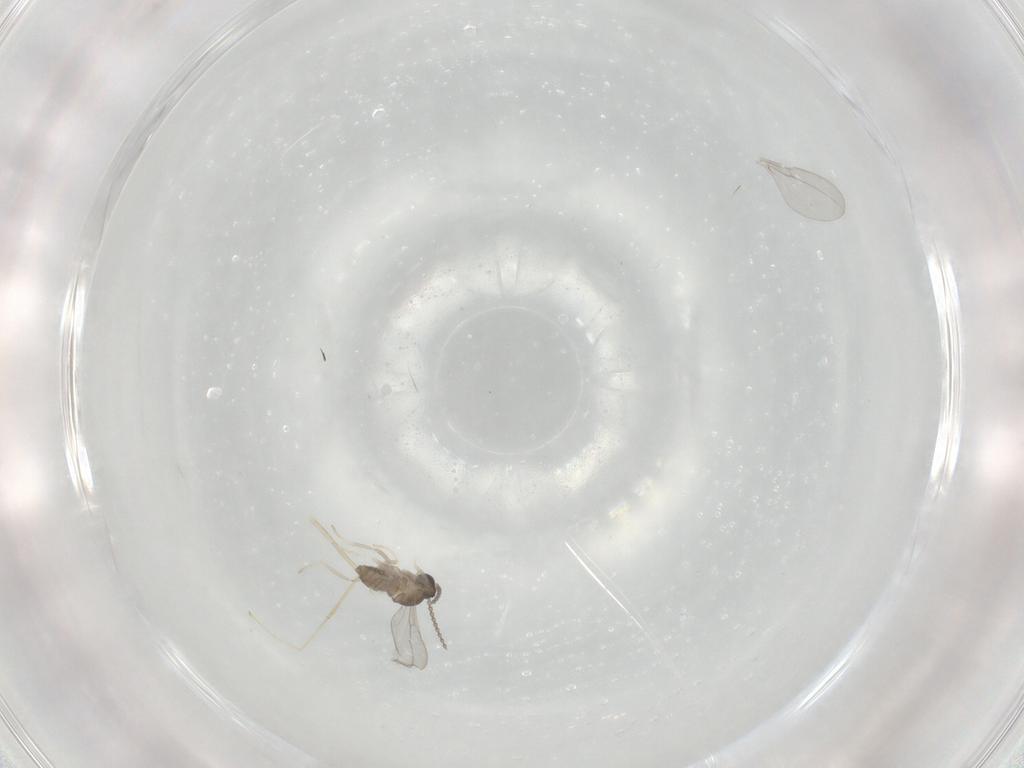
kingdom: Animalia
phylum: Arthropoda
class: Insecta
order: Diptera
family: Cecidomyiidae
